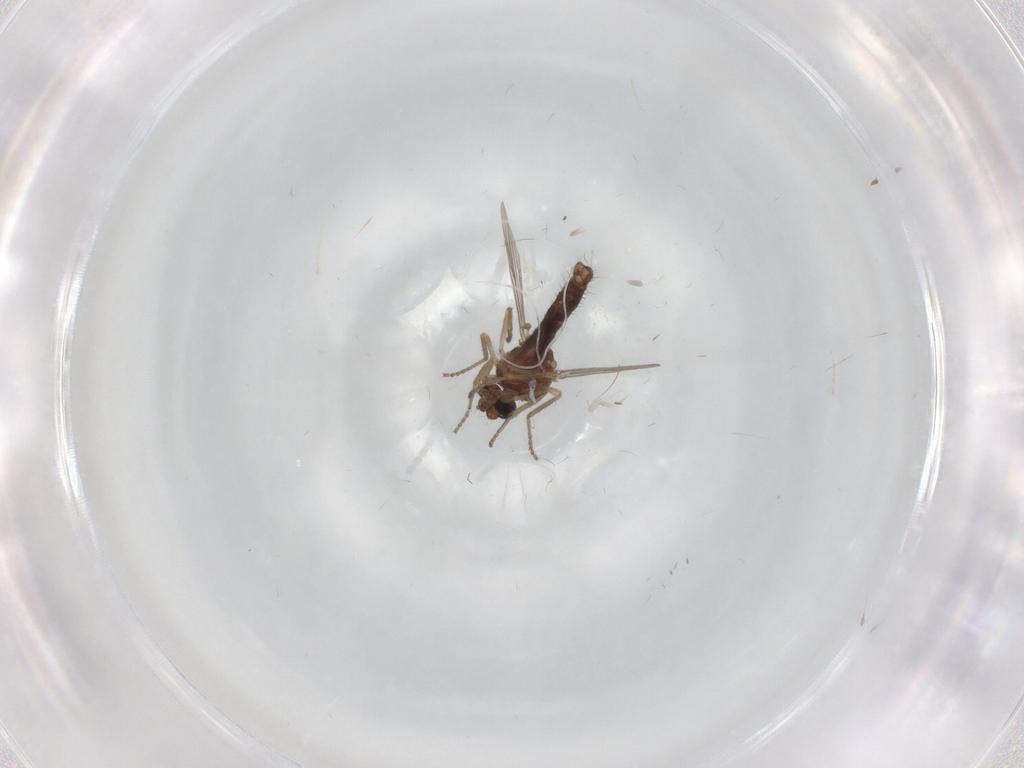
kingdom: Animalia
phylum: Arthropoda
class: Insecta
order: Diptera
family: Ceratopogonidae
